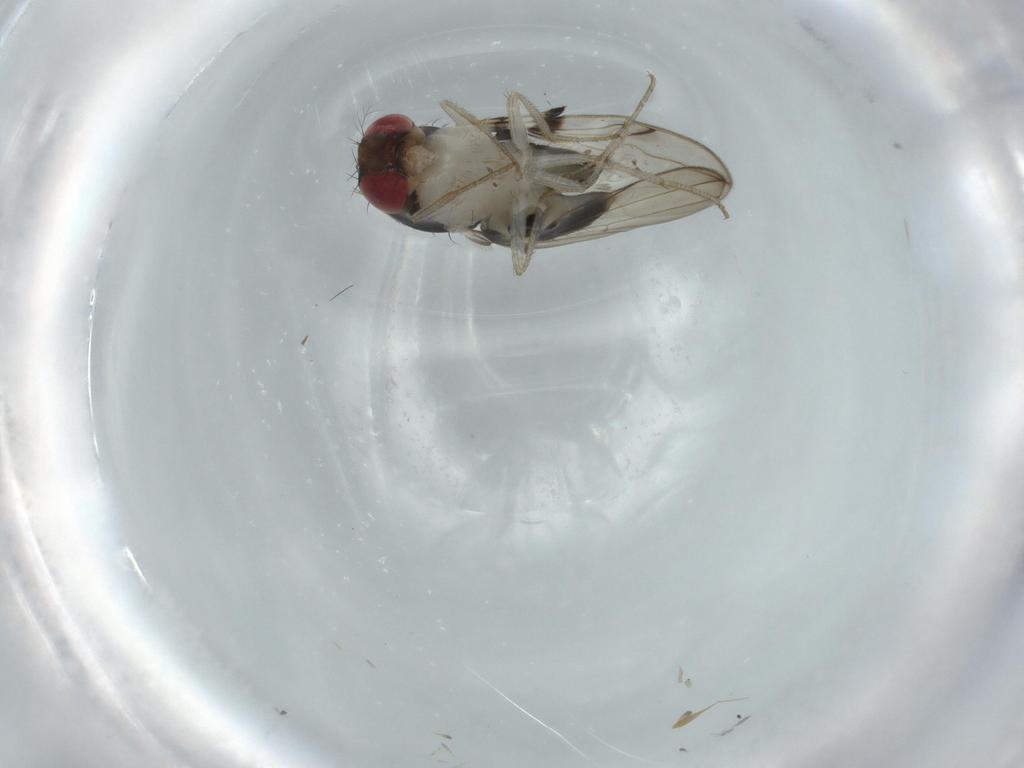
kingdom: Animalia
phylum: Arthropoda
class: Insecta
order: Diptera
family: Drosophilidae
